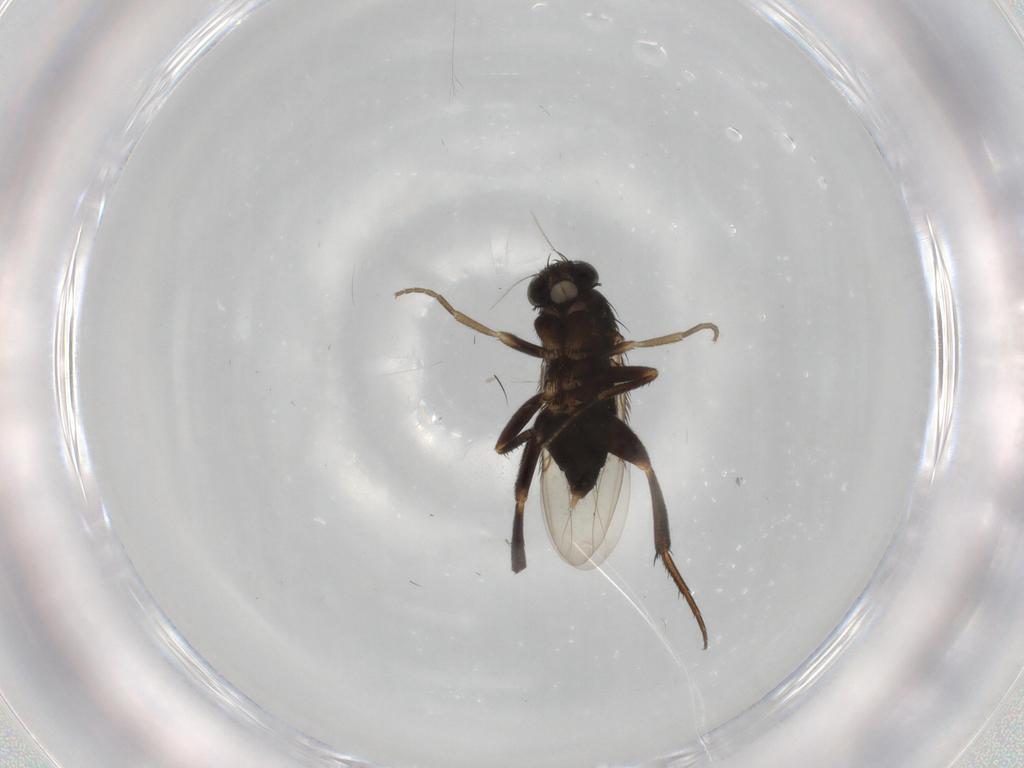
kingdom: Animalia
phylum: Arthropoda
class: Insecta
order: Diptera
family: Phoridae
